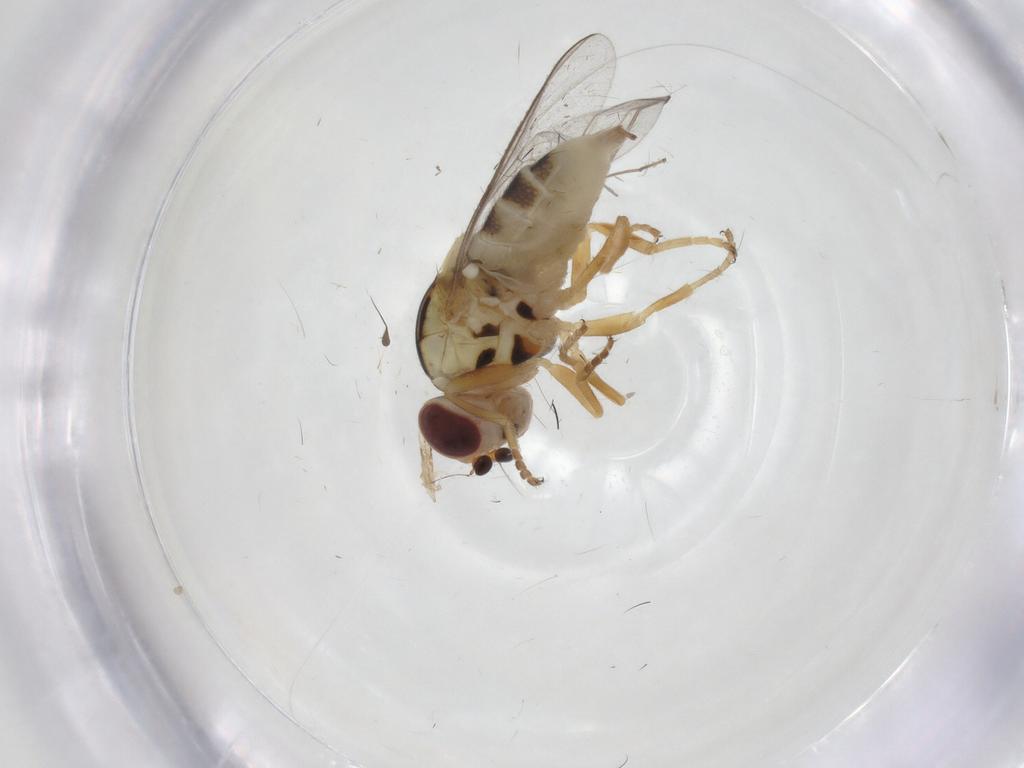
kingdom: Animalia
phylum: Arthropoda
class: Insecta
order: Diptera
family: Chloropidae
